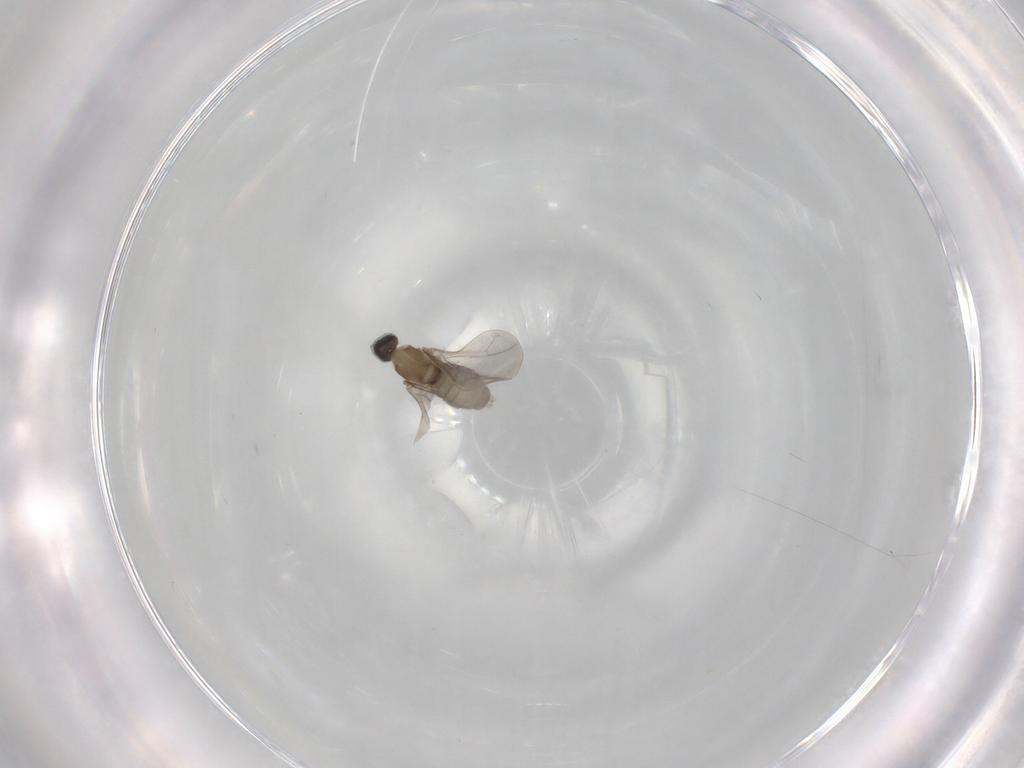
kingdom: Animalia
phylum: Arthropoda
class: Insecta
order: Diptera
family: Cecidomyiidae
